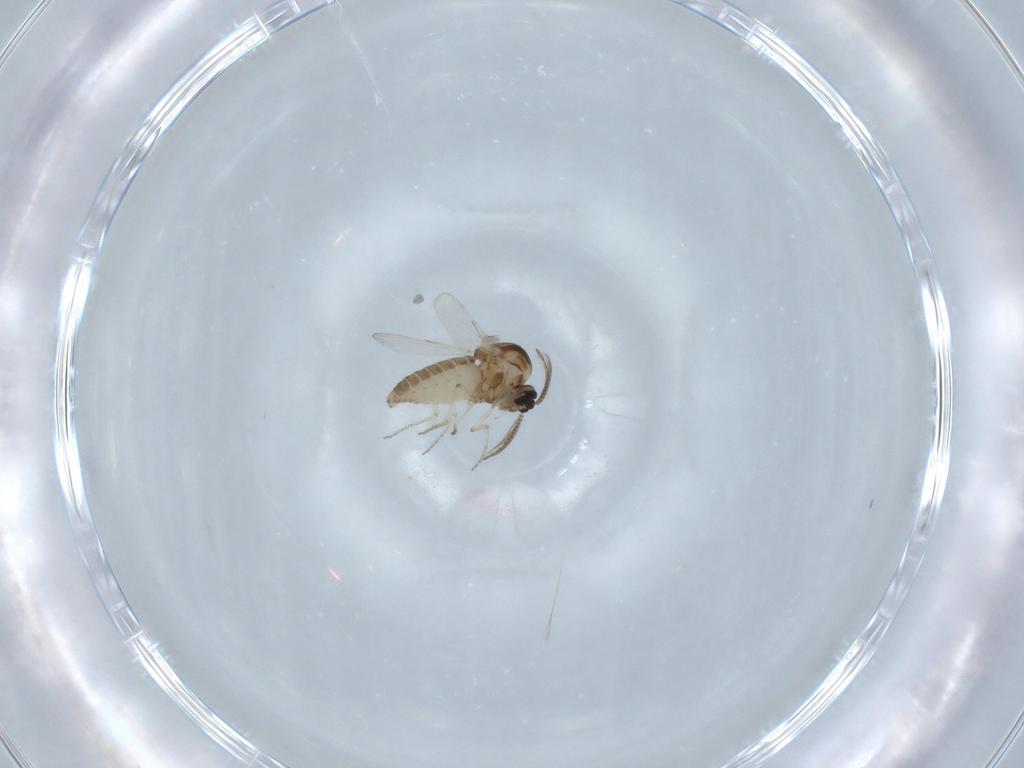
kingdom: Animalia
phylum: Arthropoda
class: Insecta
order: Diptera
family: Ceratopogonidae
